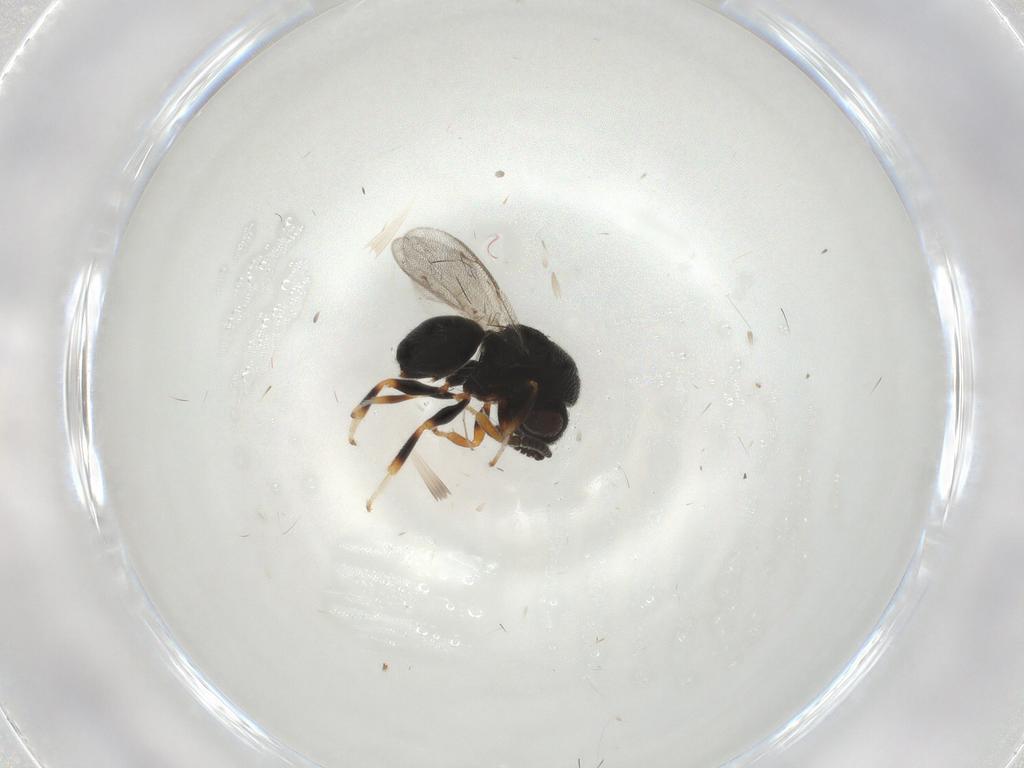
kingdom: Animalia
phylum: Arthropoda
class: Insecta
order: Hymenoptera
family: Eurytomidae
